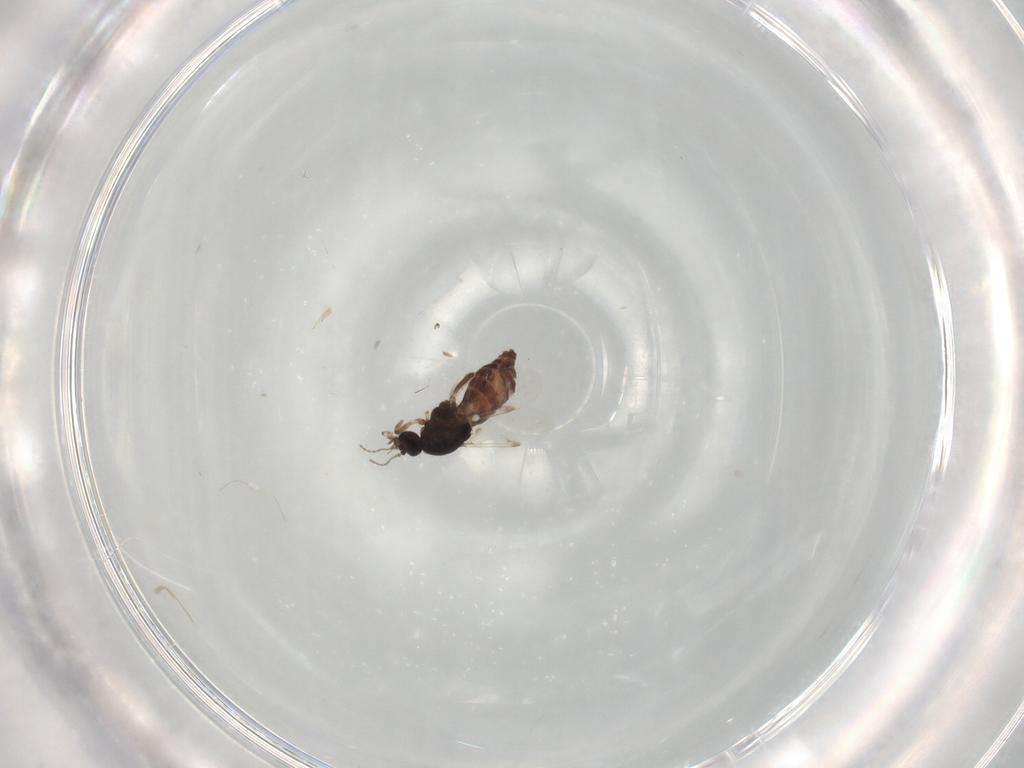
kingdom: Animalia
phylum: Arthropoda
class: Insecta
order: Diptera
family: Ceratopogonidae
